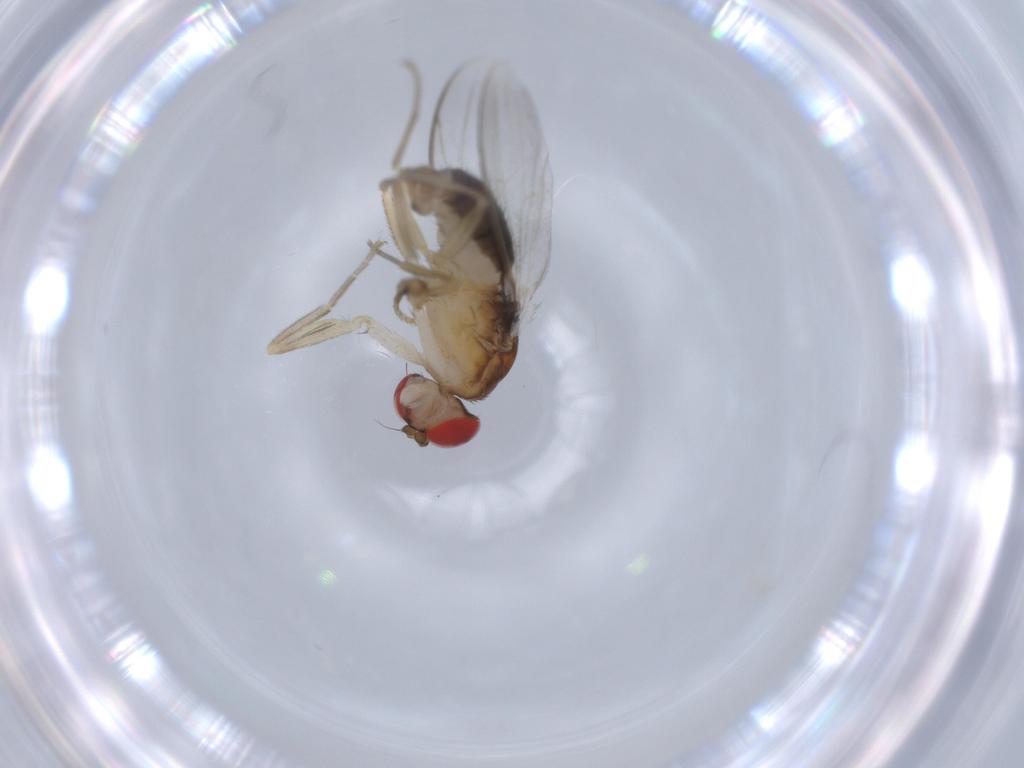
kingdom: Animalia
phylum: Arthropoda
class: Insecta
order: Diptera
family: Drosophilidae
